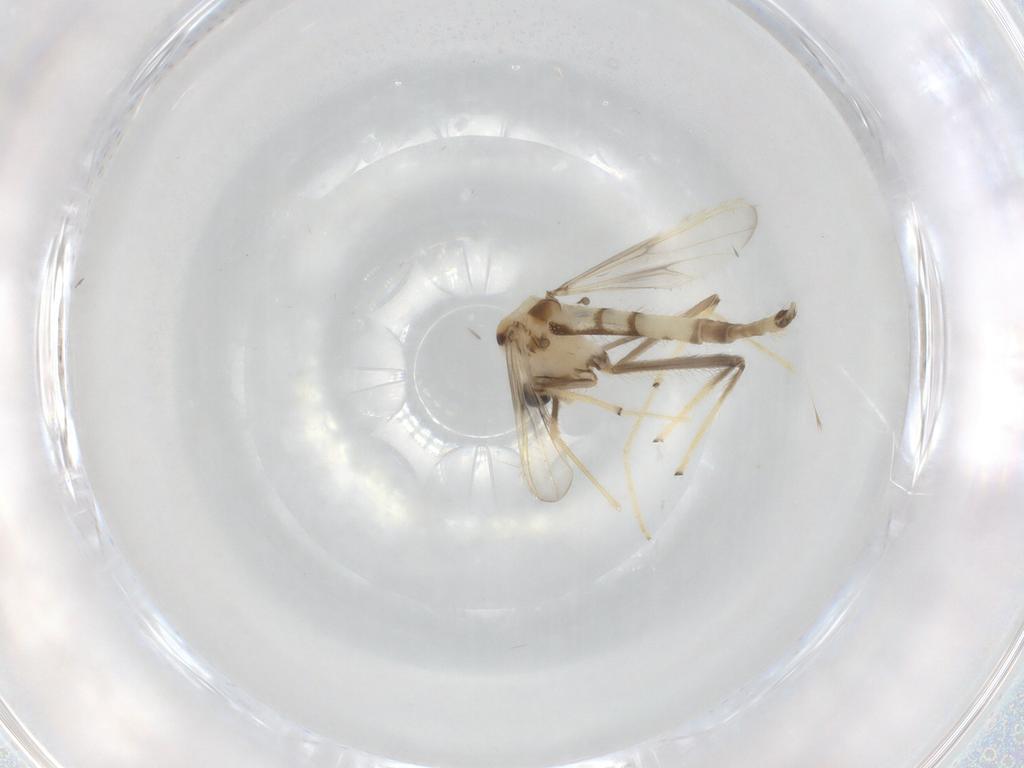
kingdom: Animalia
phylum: Arthropoda
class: Insecta
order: Diptera
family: Chironomidae
